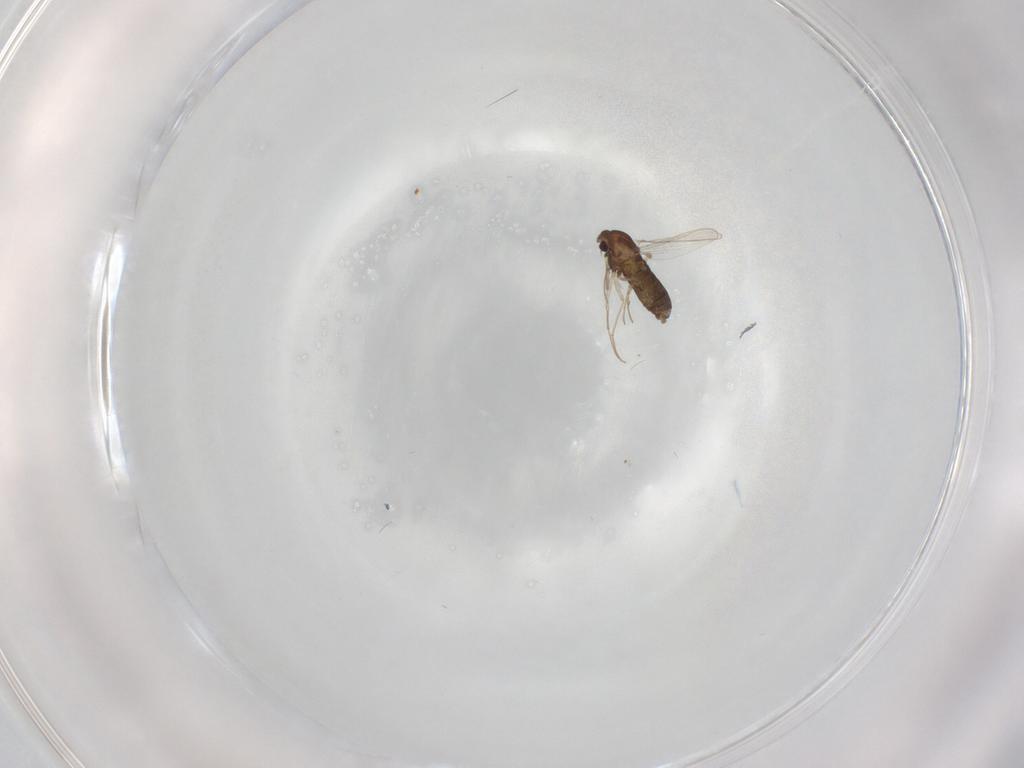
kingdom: Animalia
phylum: Arthropoda
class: Insecta
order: Diptera
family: Chironomidae
